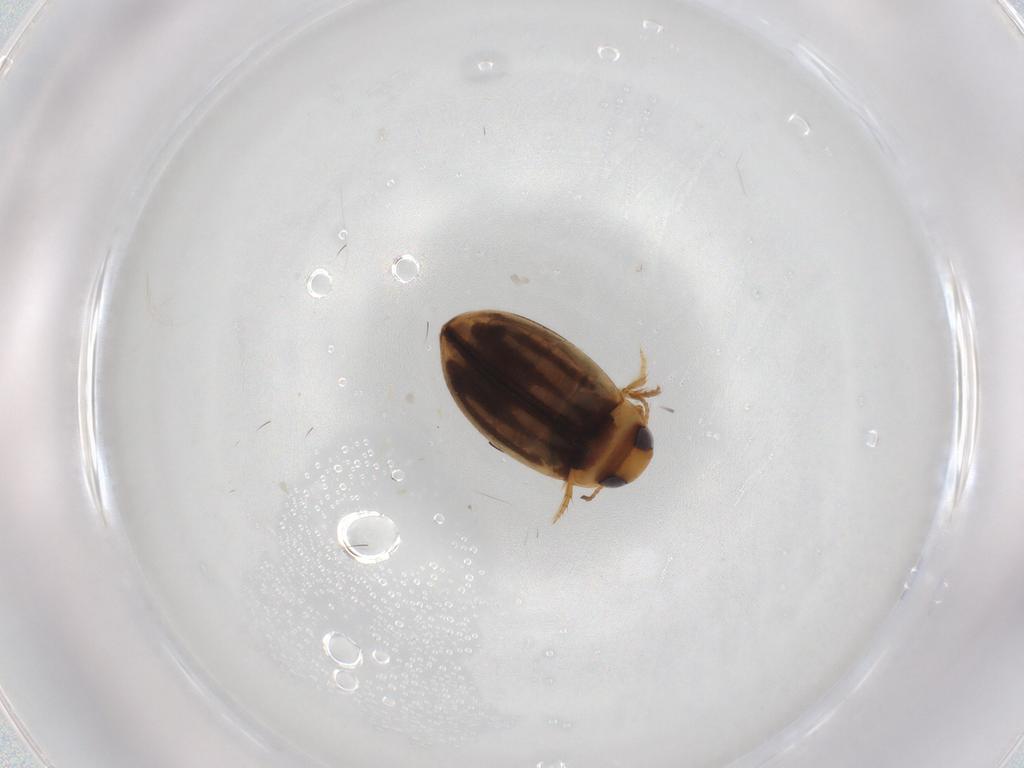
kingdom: Animalia
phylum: Arthropoda
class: Insecta
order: Coleoptera
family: Dytiscidae
